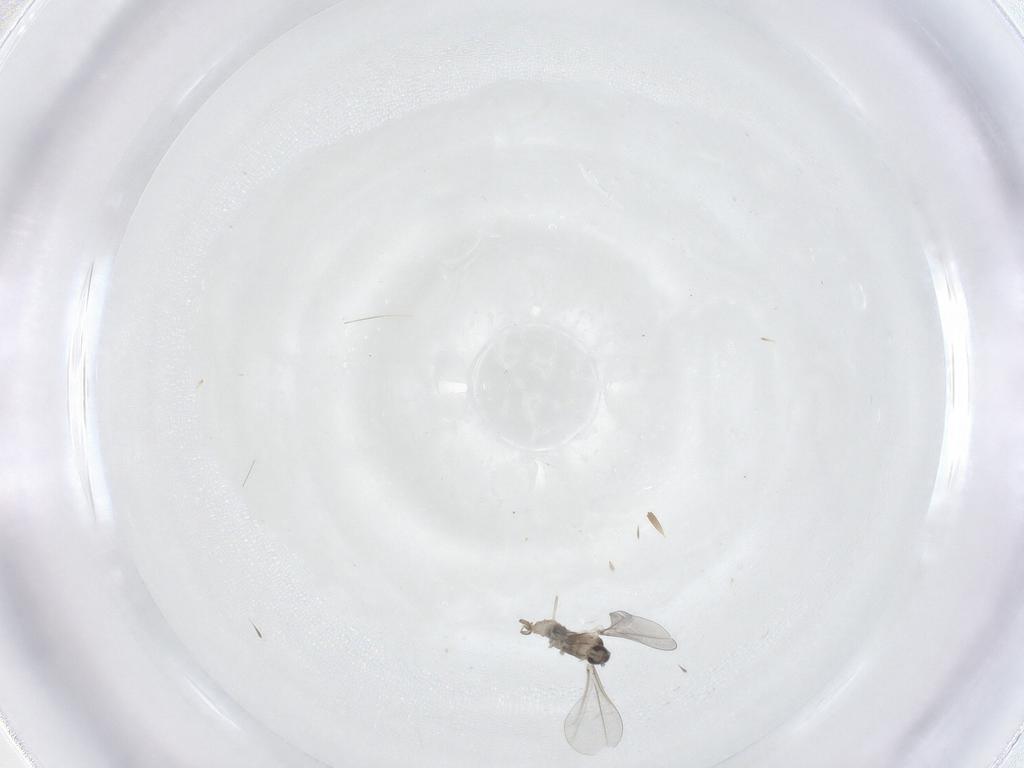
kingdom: Animalia
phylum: Arthropoda
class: Insecta
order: Diptera
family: Cecidomyiidae
